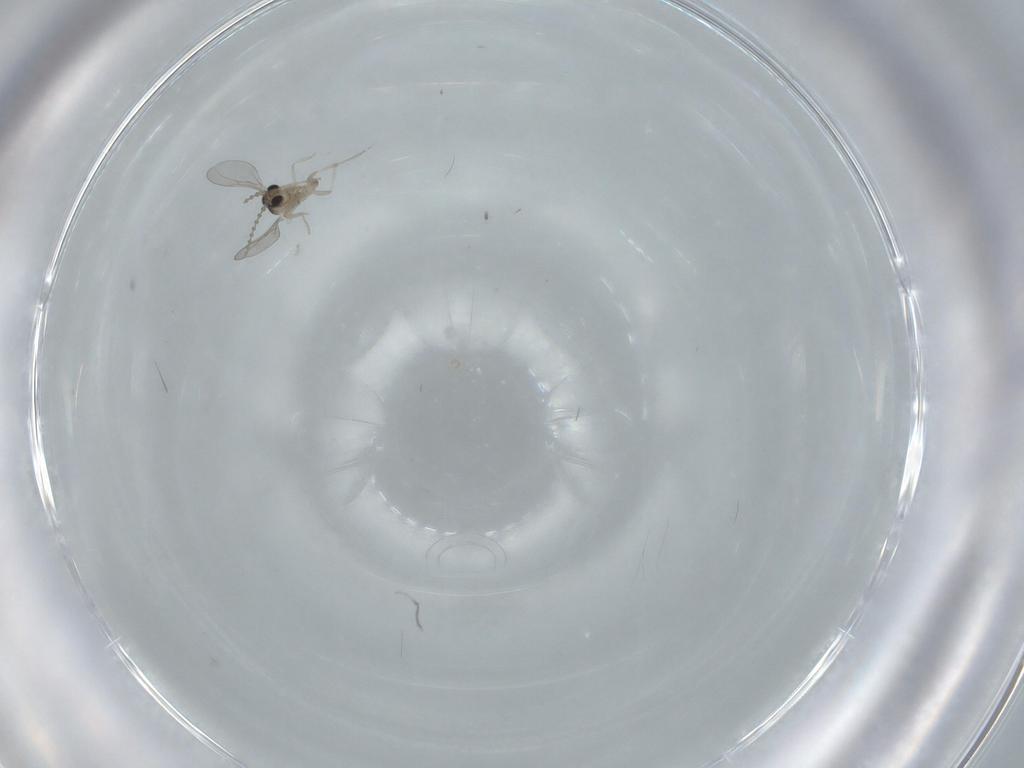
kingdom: Animalia
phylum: Arthropoda
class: Insecta
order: Diptera
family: Cecidomyiidae
